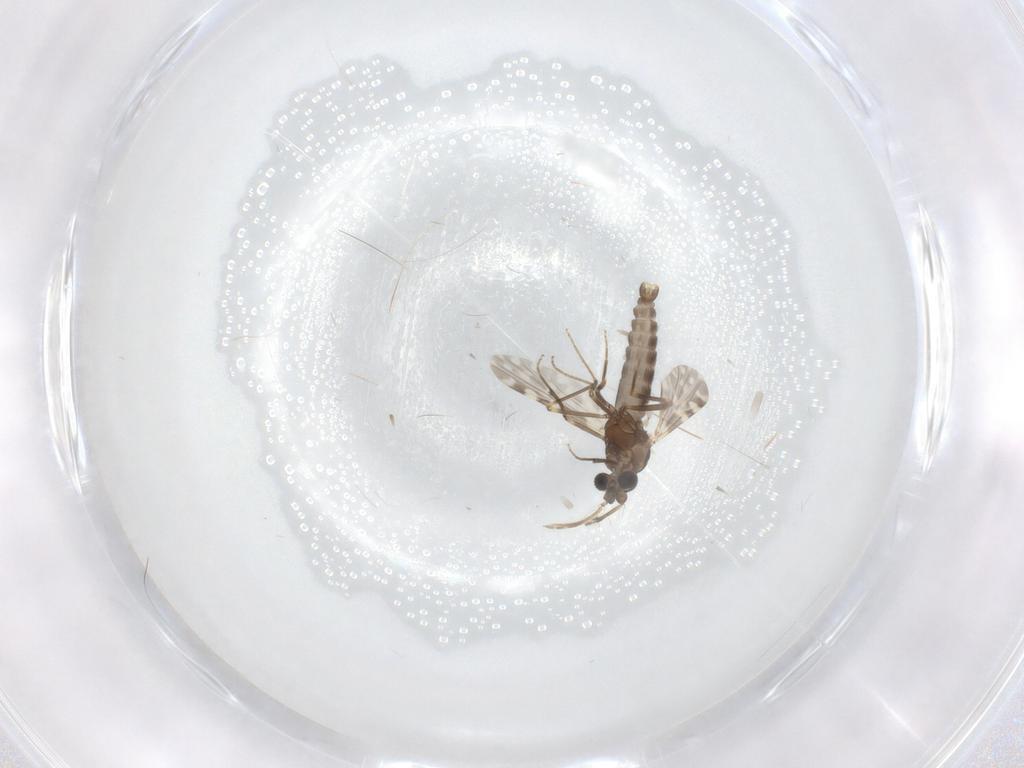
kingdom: Animalia
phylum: Arthropoda
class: Insecta
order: Diptera
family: Ceratopogonidae
